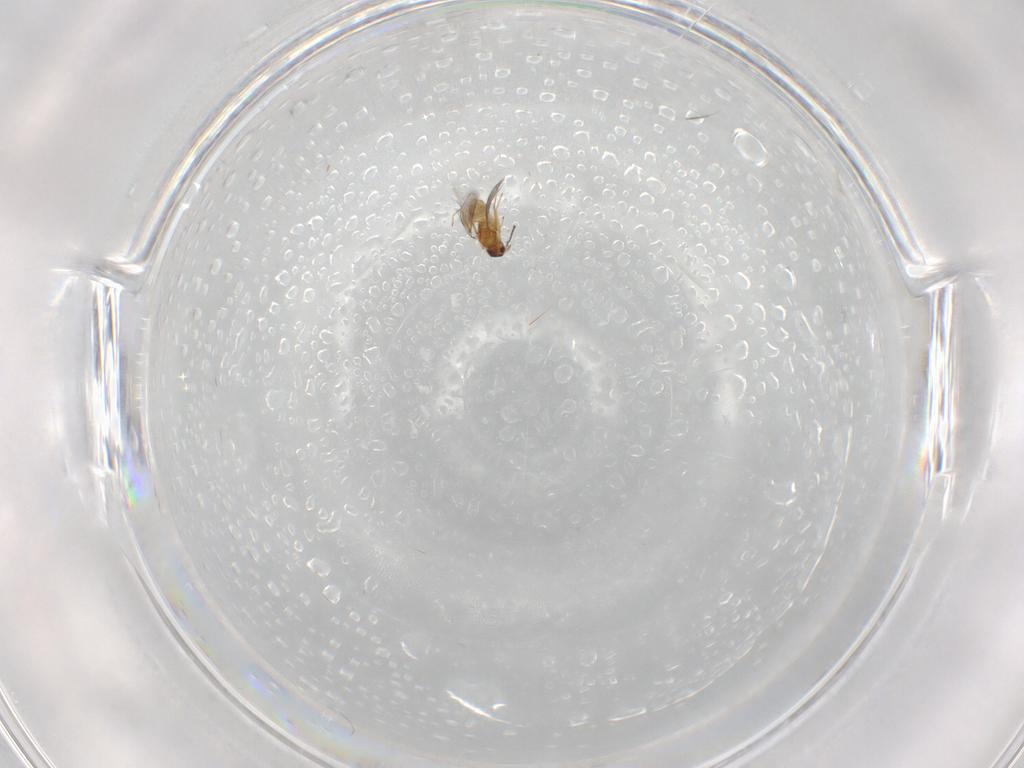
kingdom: Animalia
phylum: Arthropoda
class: Insecta
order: Hymenoptera
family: Mymaridae
